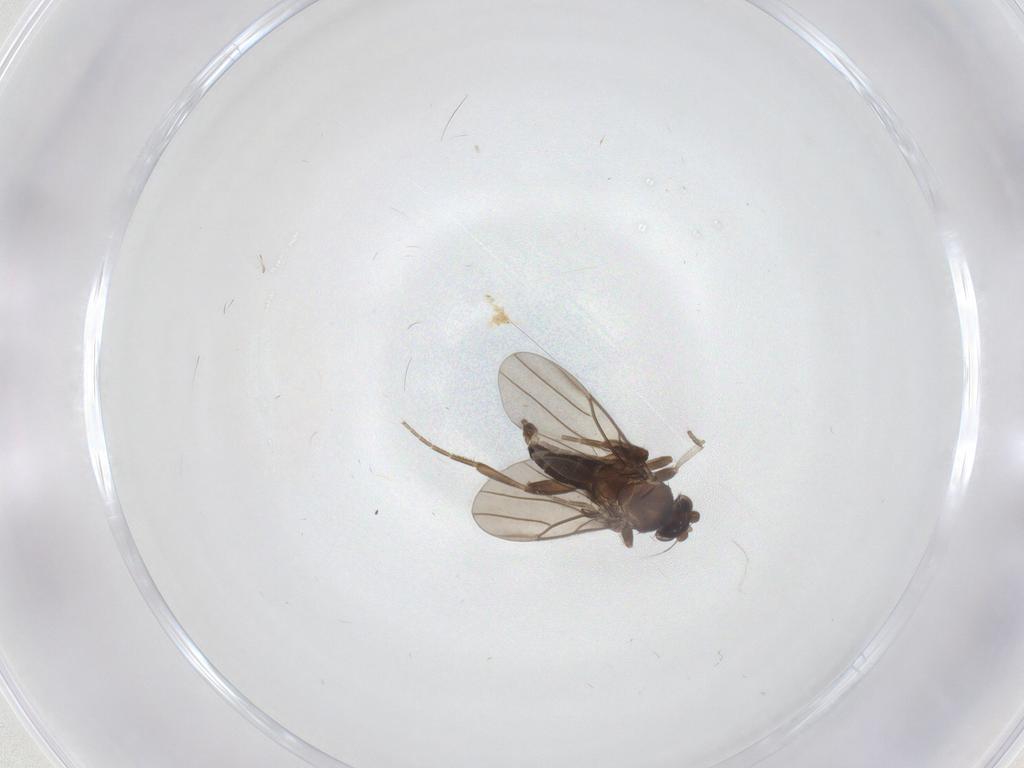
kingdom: Animalia
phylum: Arthropoda
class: Insecta
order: Diptera
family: Phoridae
